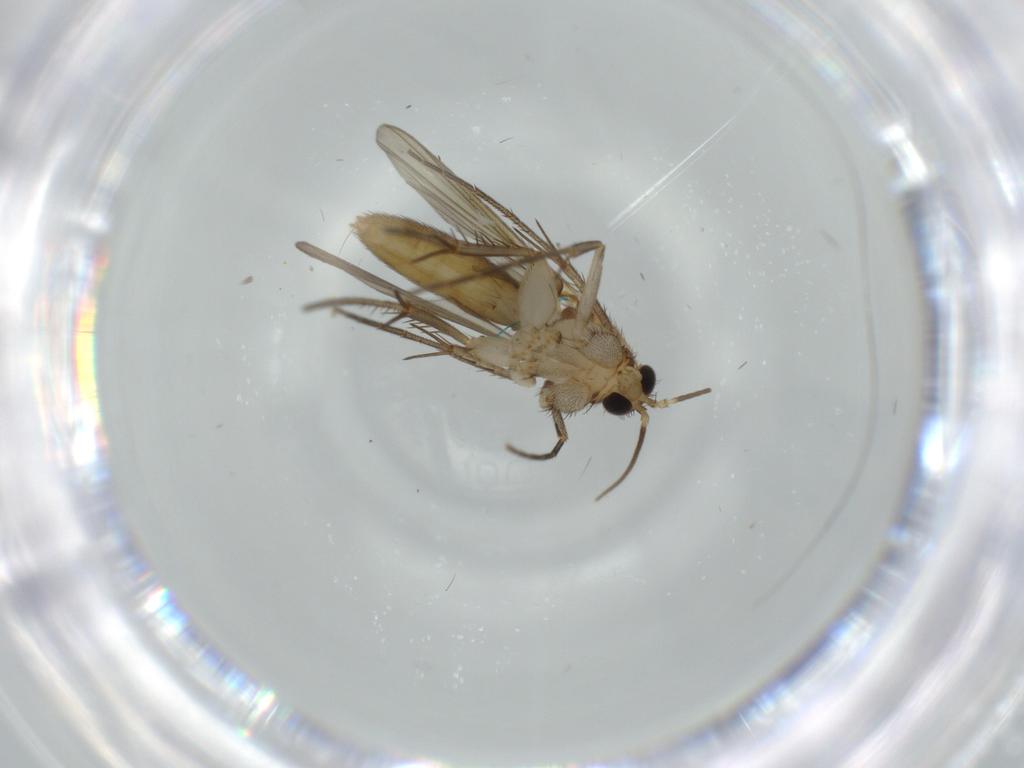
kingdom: Animalia
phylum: Arthropoda
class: Insecta
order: Diptera
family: Mycetophilidae
